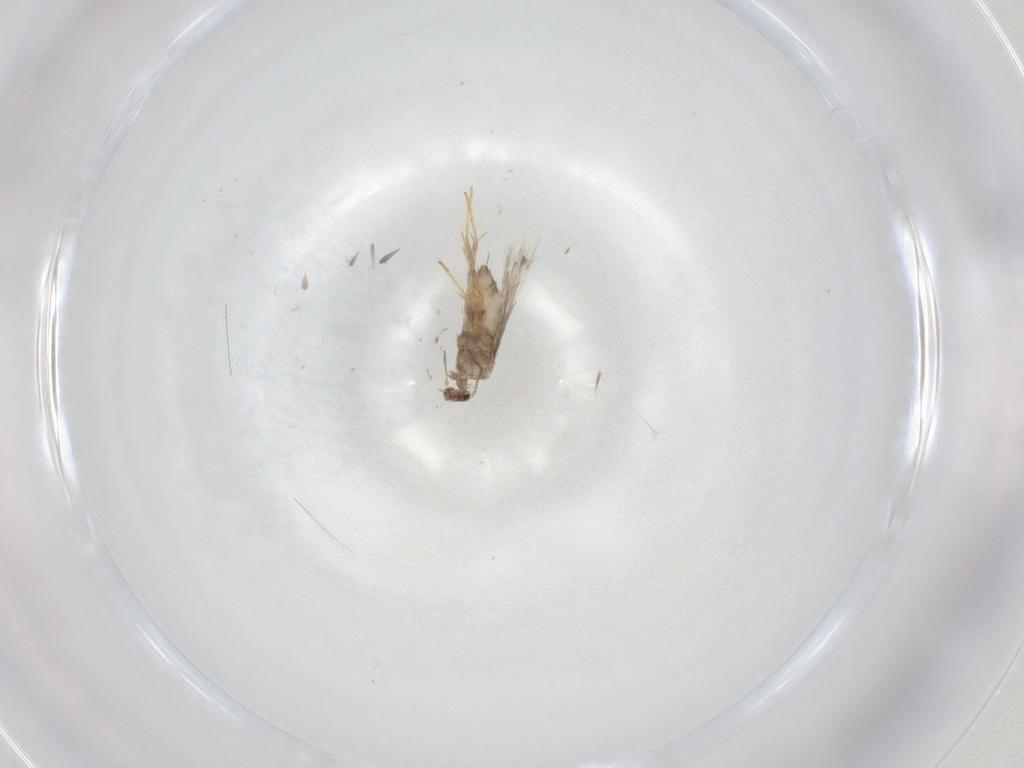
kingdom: Animalia
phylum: Arthropoda
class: Insecta
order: Lepidoptera
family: Nepticulidae
